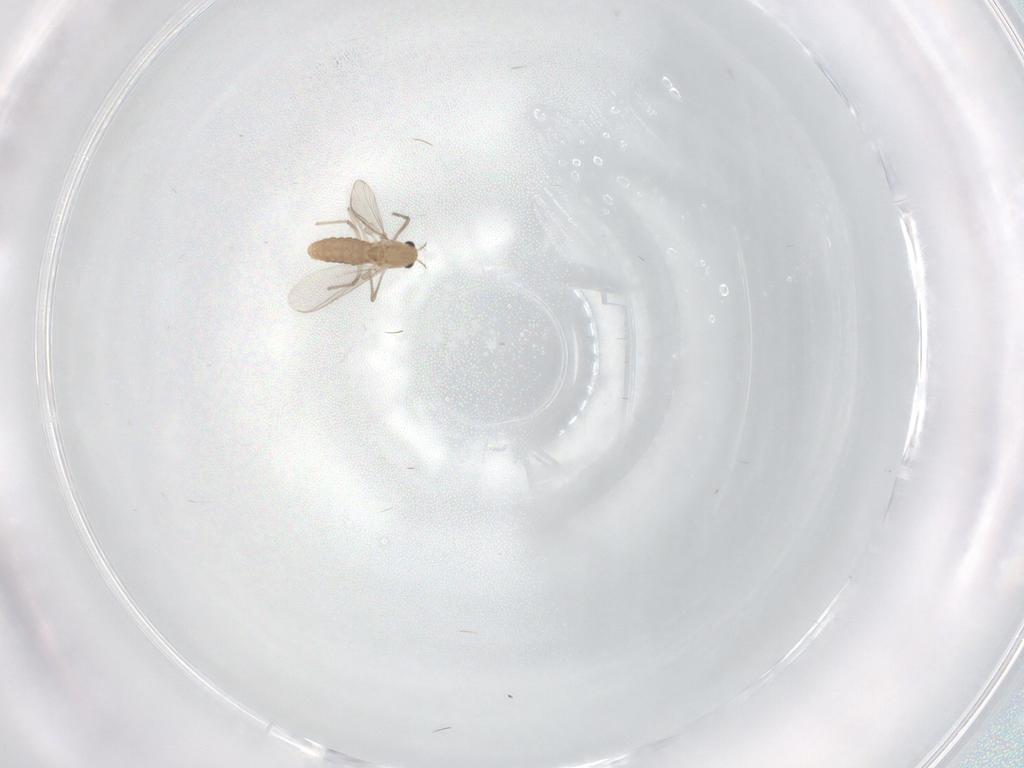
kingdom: Animalia
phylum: Arthropoda
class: Insecta
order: Diptera
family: Chironomidae
